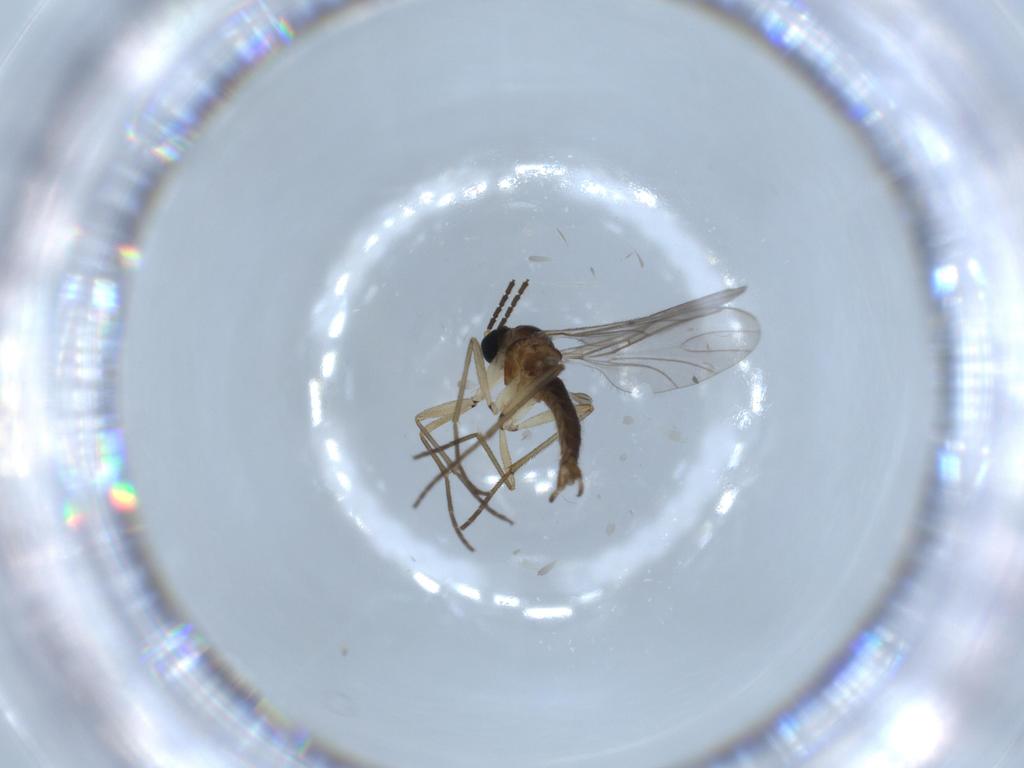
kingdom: Animalia
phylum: Arthropoda
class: Insecta
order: Diptera
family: Sciaridae
